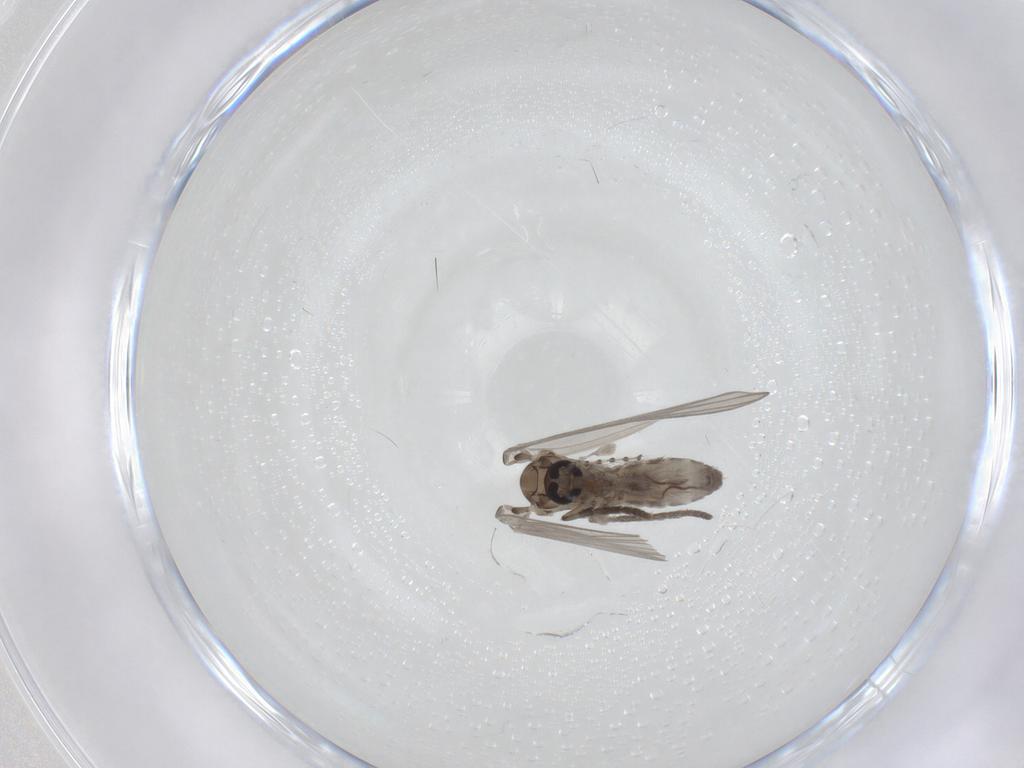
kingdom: Animalia
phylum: Arthropoda
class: Insecta
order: Diptera
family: Psychodidae
